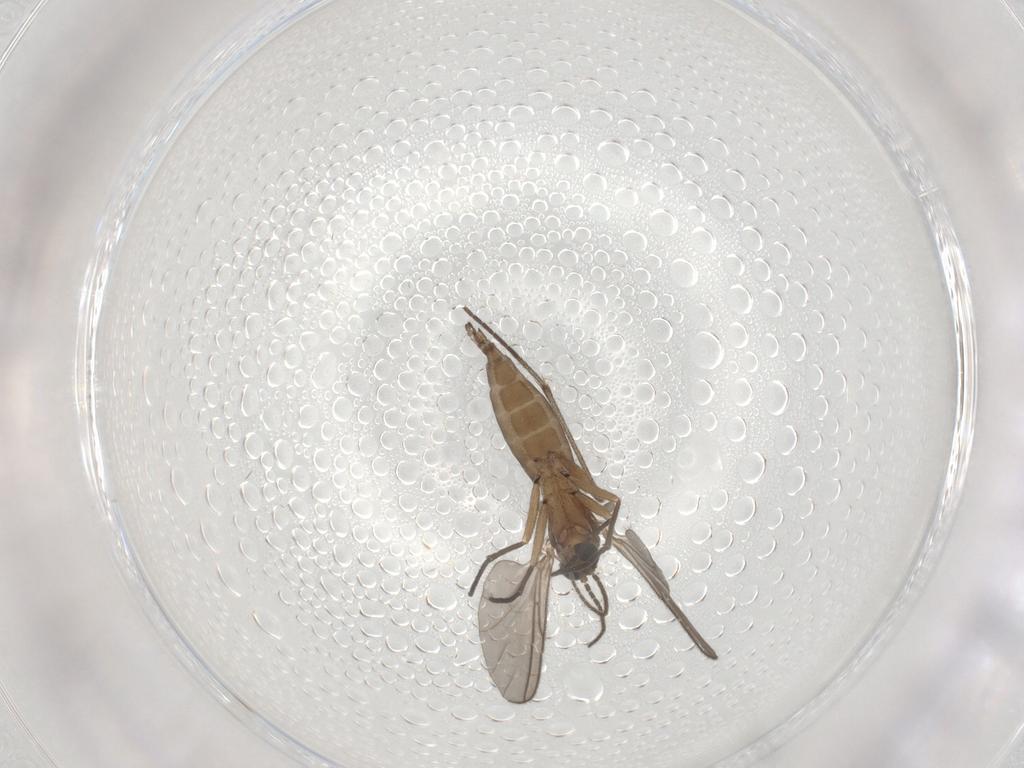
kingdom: Animalia
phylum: Arthropoda
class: Insecta
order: Diptera
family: Sciaridae
